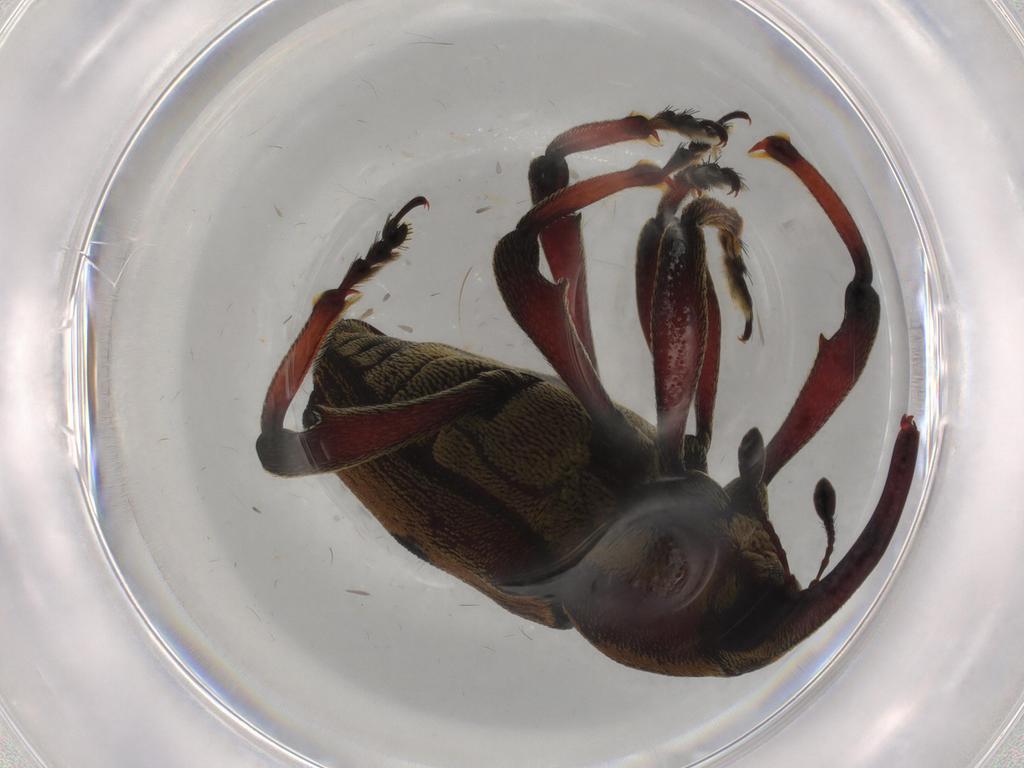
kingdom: Animalia
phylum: Arthropoda
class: Insecta
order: Coleoptera
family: Curculionidae
